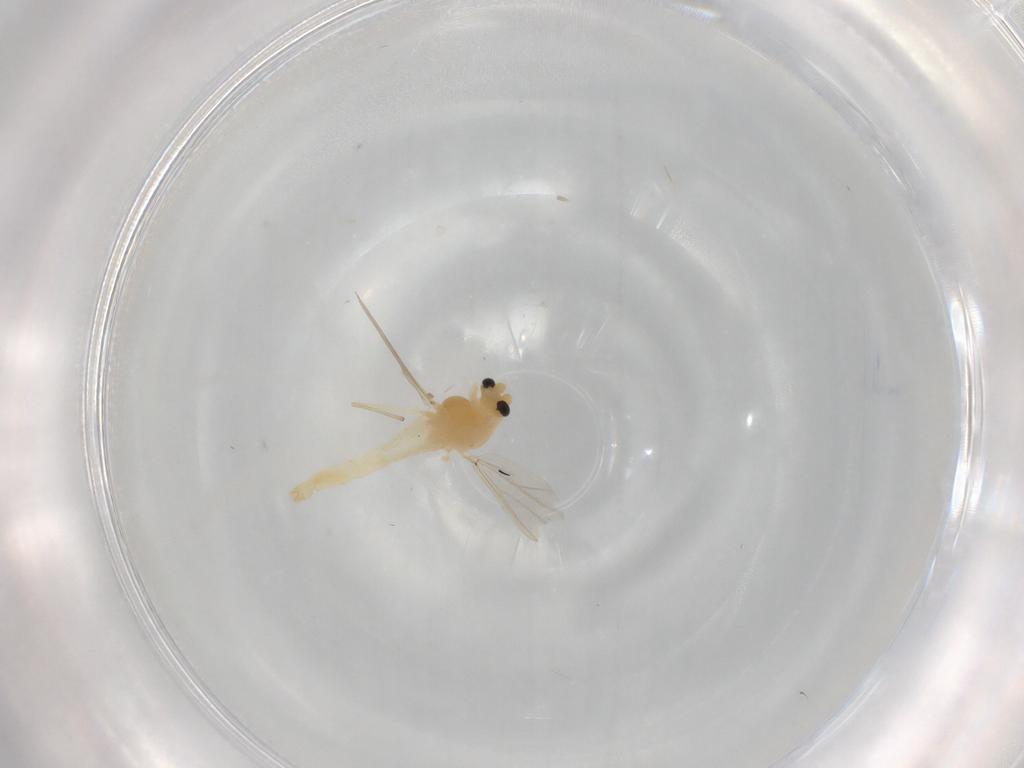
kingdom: Animalia
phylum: Arthropoda
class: Insecta
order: Diptera
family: Chironomidae
